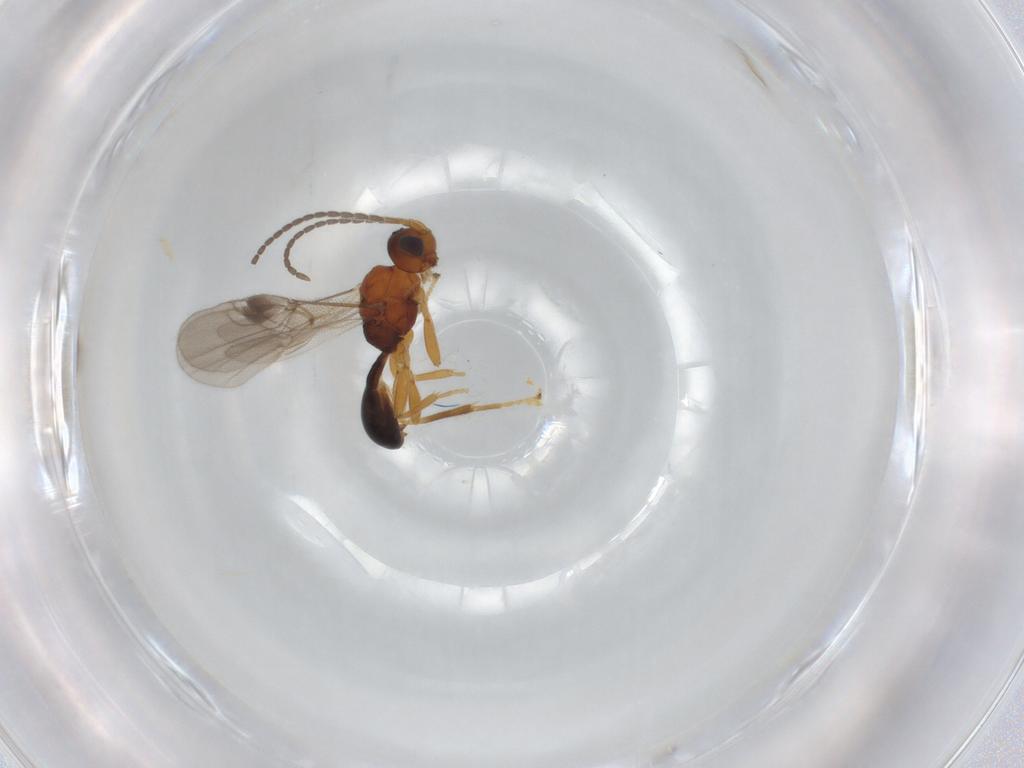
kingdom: Animalia
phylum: Arthropoda
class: Insecta
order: Hymenoptera
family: Braconidae
